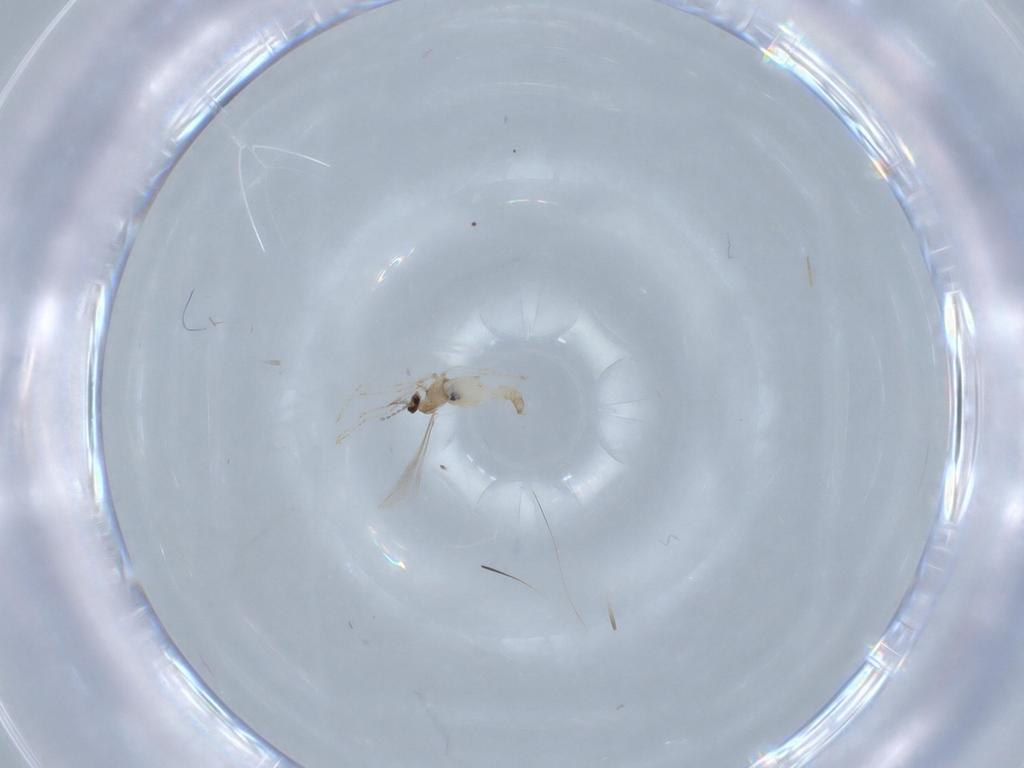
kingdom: Animalia
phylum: Arthropoda
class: Insecta
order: Diptera
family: Cecidomyiidae
